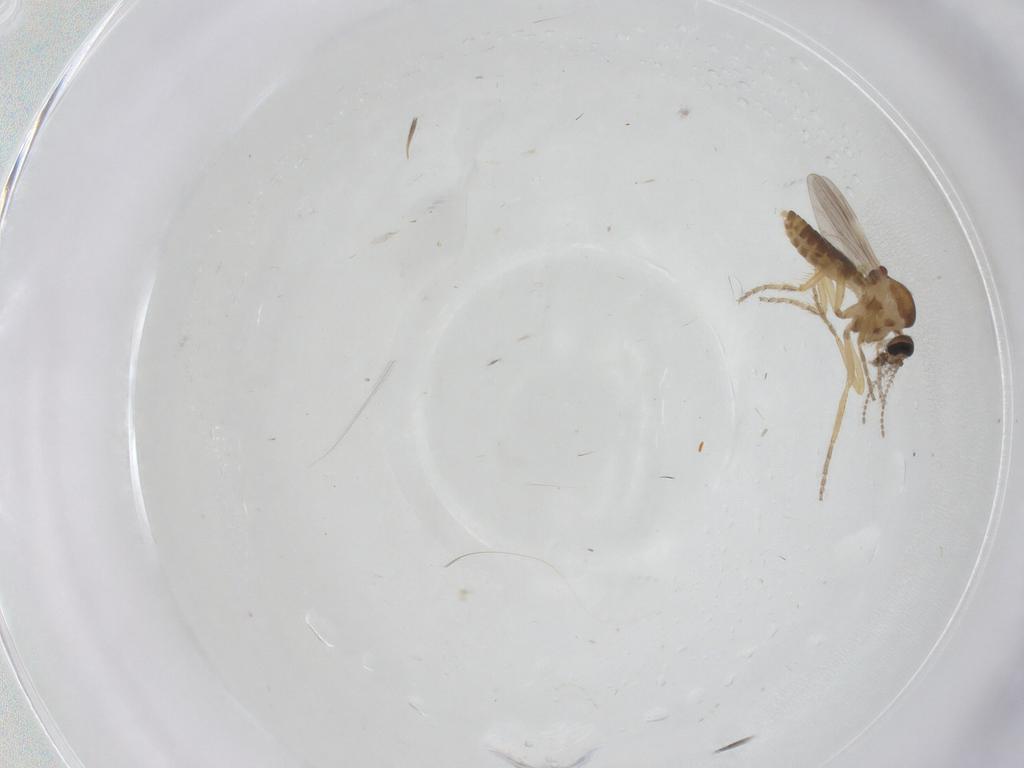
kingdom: Animalia
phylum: Arthropoda
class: Insecta
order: Diptera
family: Ceratopogonidae
